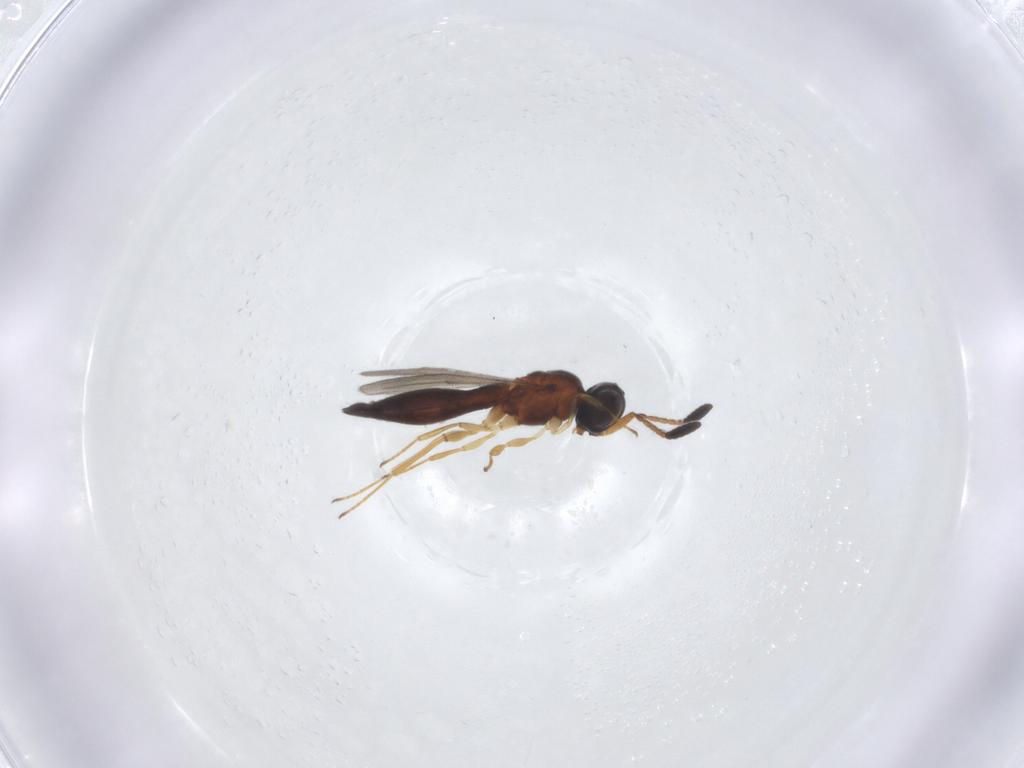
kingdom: Animalia
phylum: Arthropoda
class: Insecta
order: Hymenoptera
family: Scelionidae
